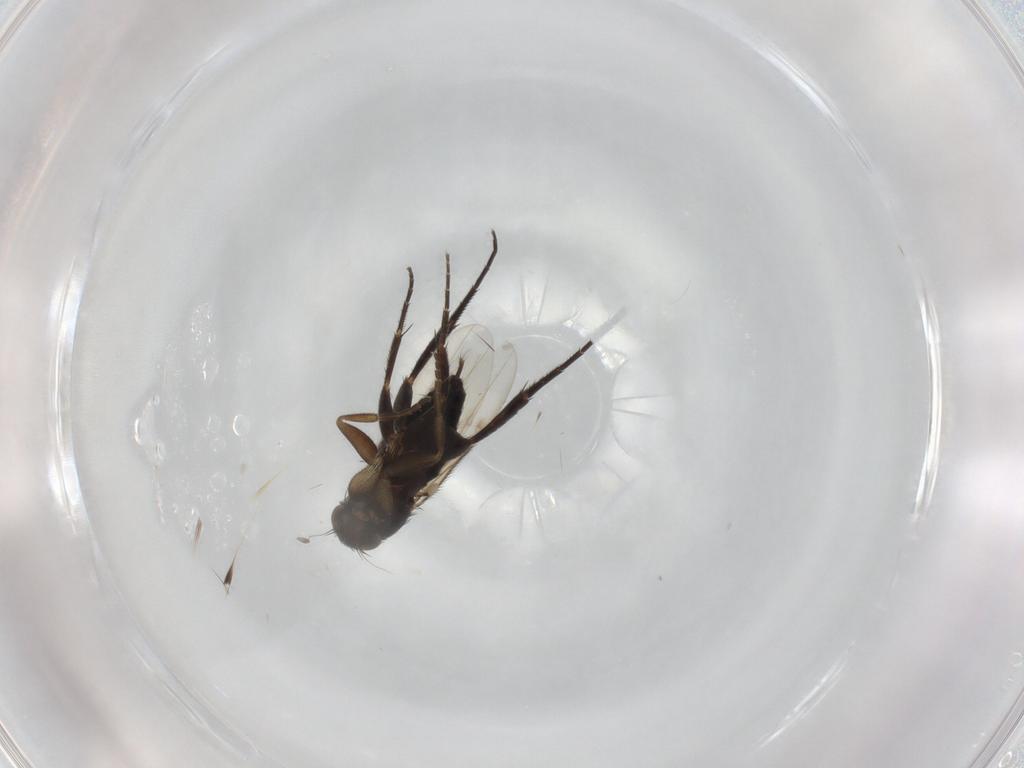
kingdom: Animalia
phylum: Arthropoda
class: Insecta
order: Diptera
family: Phoridae
